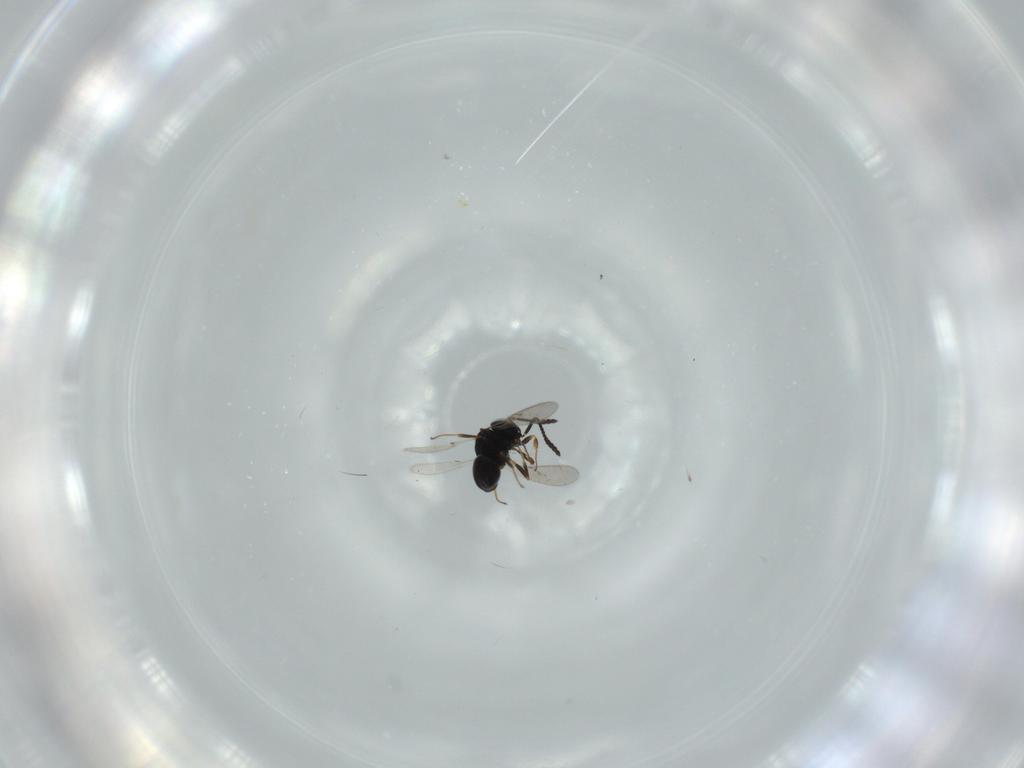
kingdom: Animalia
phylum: Arthropoda
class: Insecta
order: Hymenoptera
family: Scelionidae
